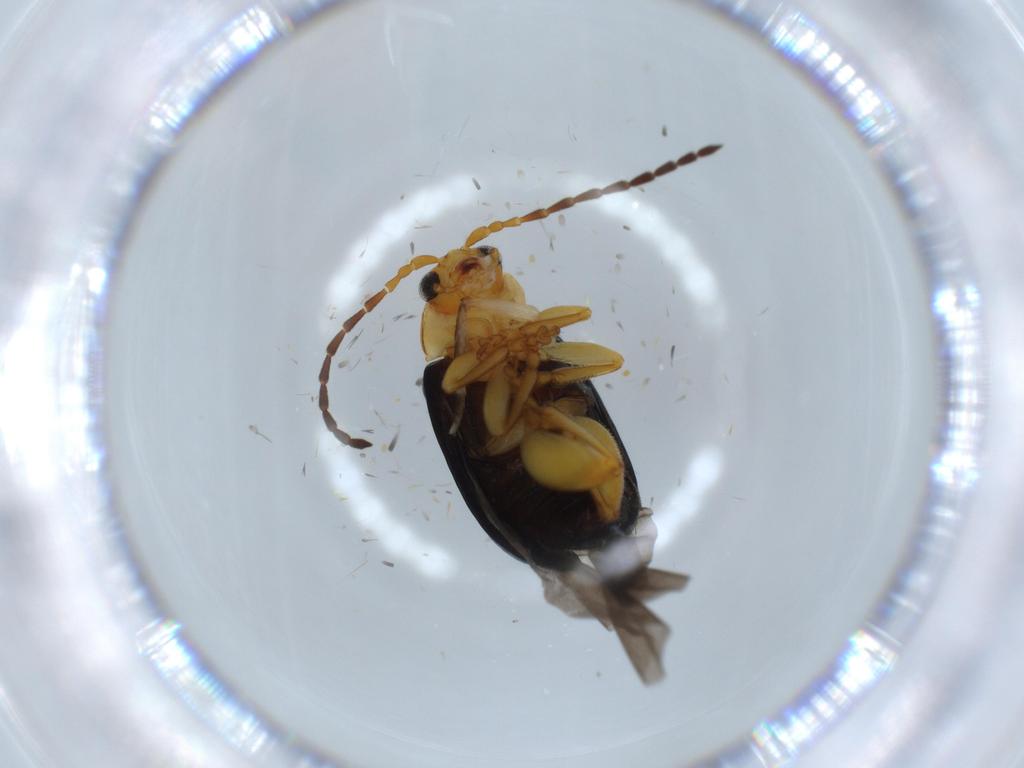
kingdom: Animalia
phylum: Arthropoda
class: Insecta
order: Coleoptera
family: Chrysomelidae
